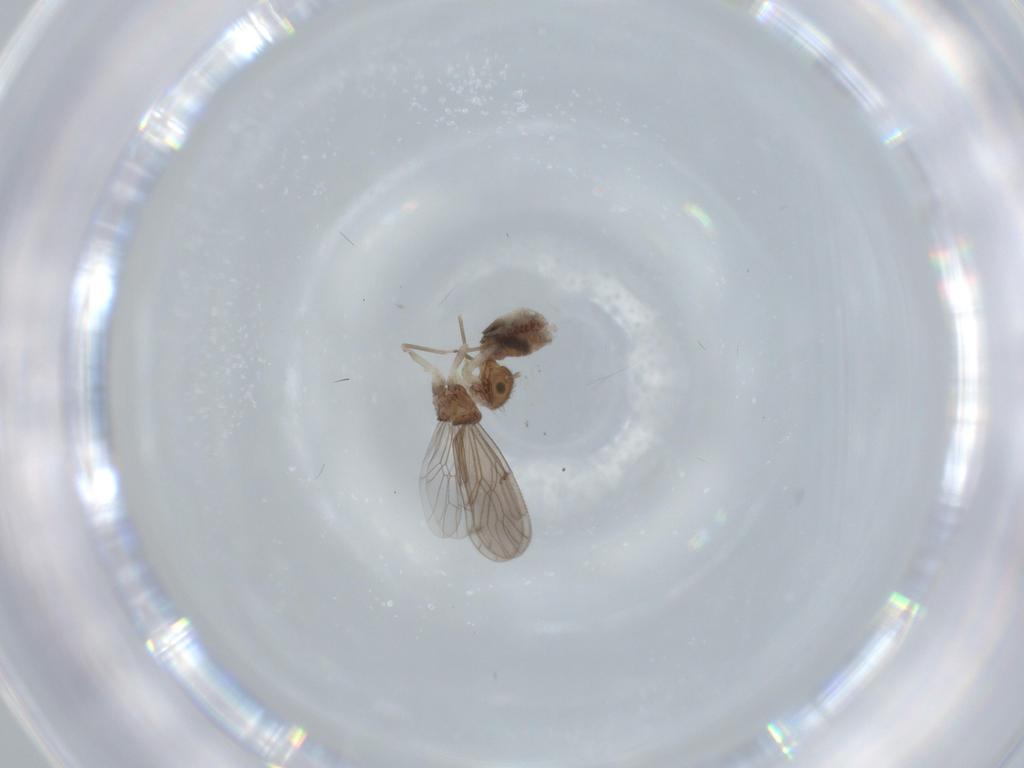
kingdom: Animalia
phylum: Arthropoda
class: Insecta
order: Psocodea
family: Ectopsocidae
